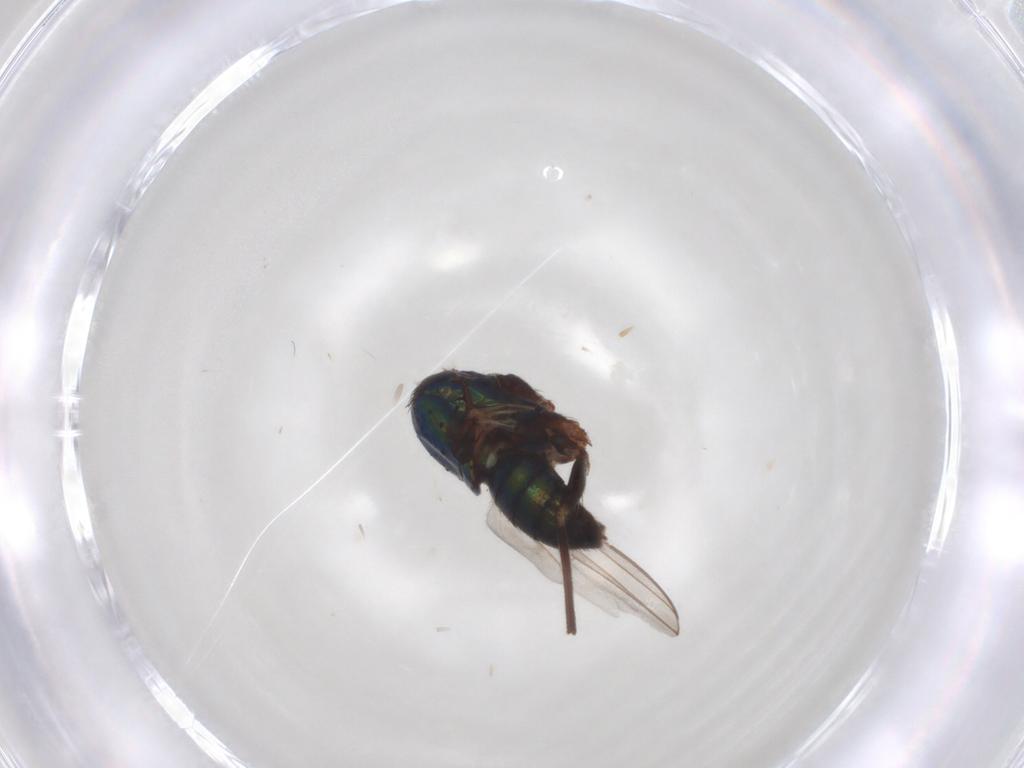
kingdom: Animalia
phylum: Arthropoda
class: Insecta
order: Diptera
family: Dolichopodidae
